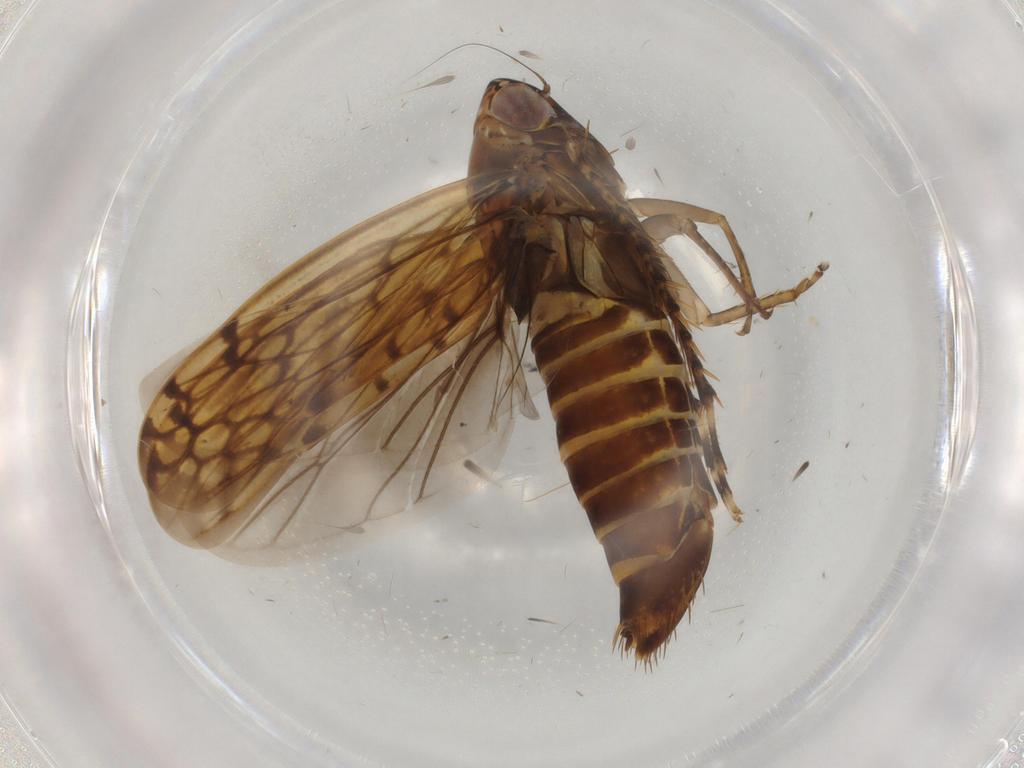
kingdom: Animalia
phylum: Arthropoda
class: Insecta
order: Hemiptera
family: Cicadellidae
